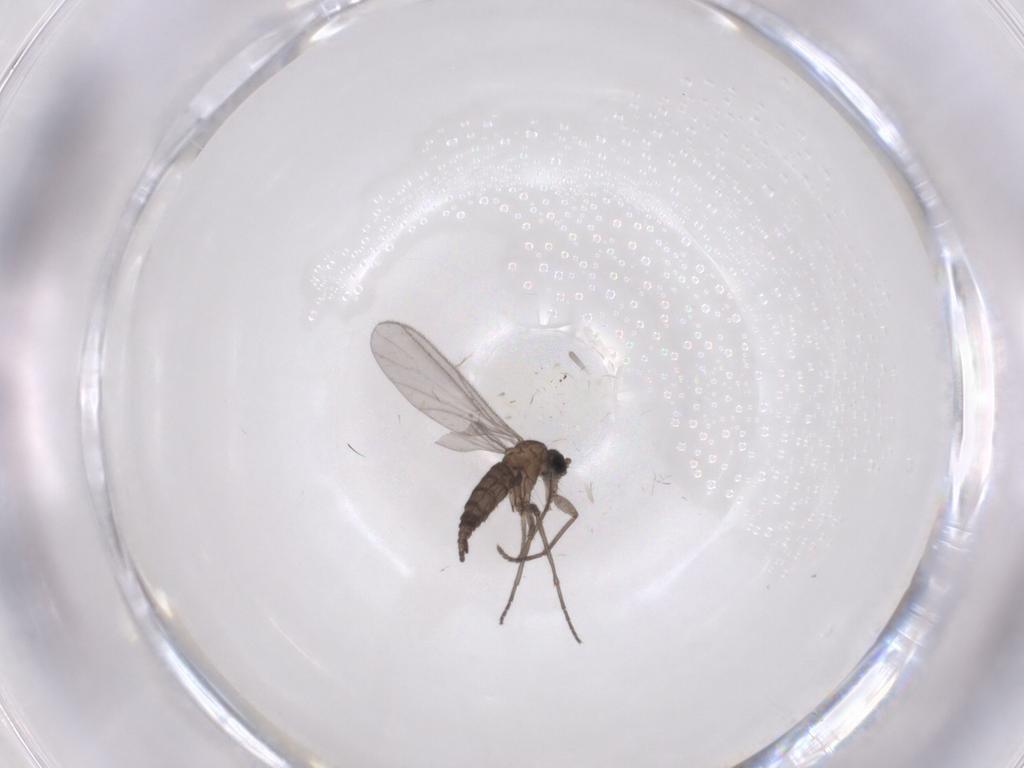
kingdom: Animalia
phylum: Arthropoda
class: Insecta
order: Diptera
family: Sciaridae
